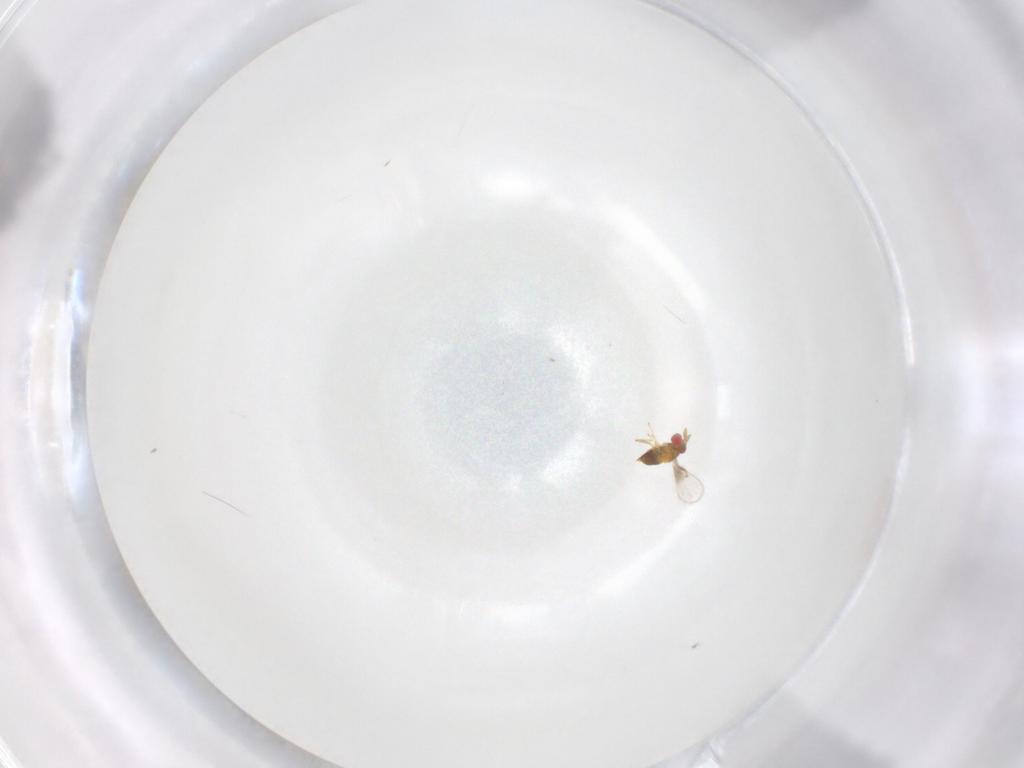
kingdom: Animalia
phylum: Arthropoda
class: Insecta
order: Hymenoptera
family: Trichogrammatidae
